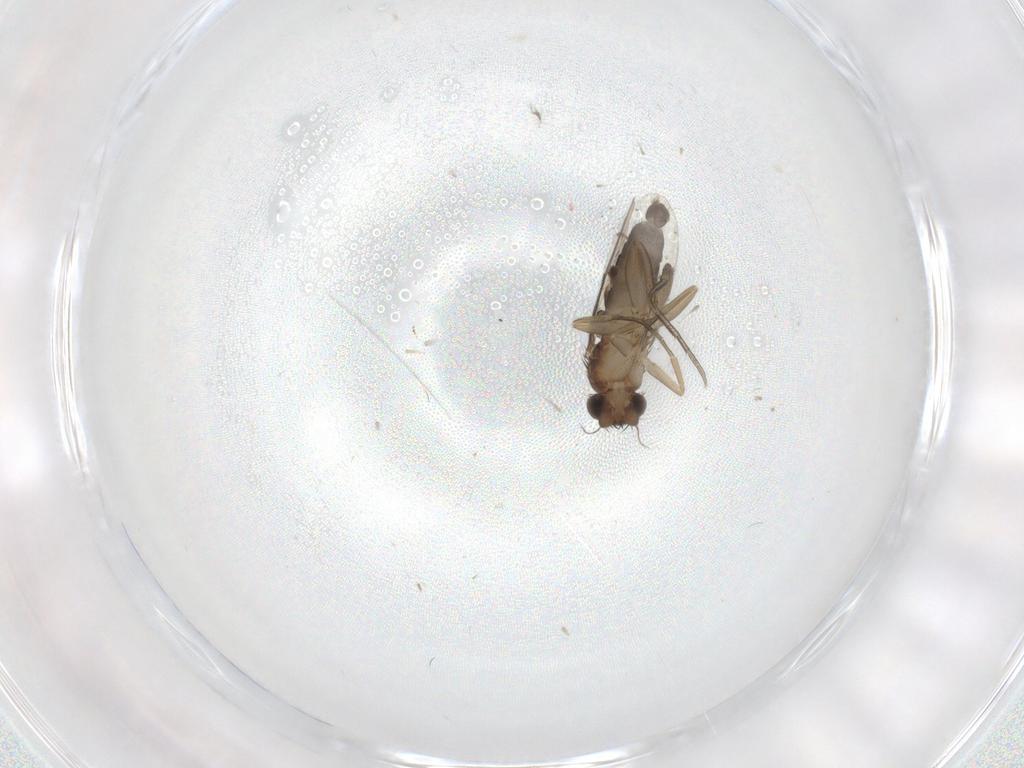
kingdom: Animalia
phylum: Arthropoda
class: Insecta
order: Diptera
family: Phoridae
